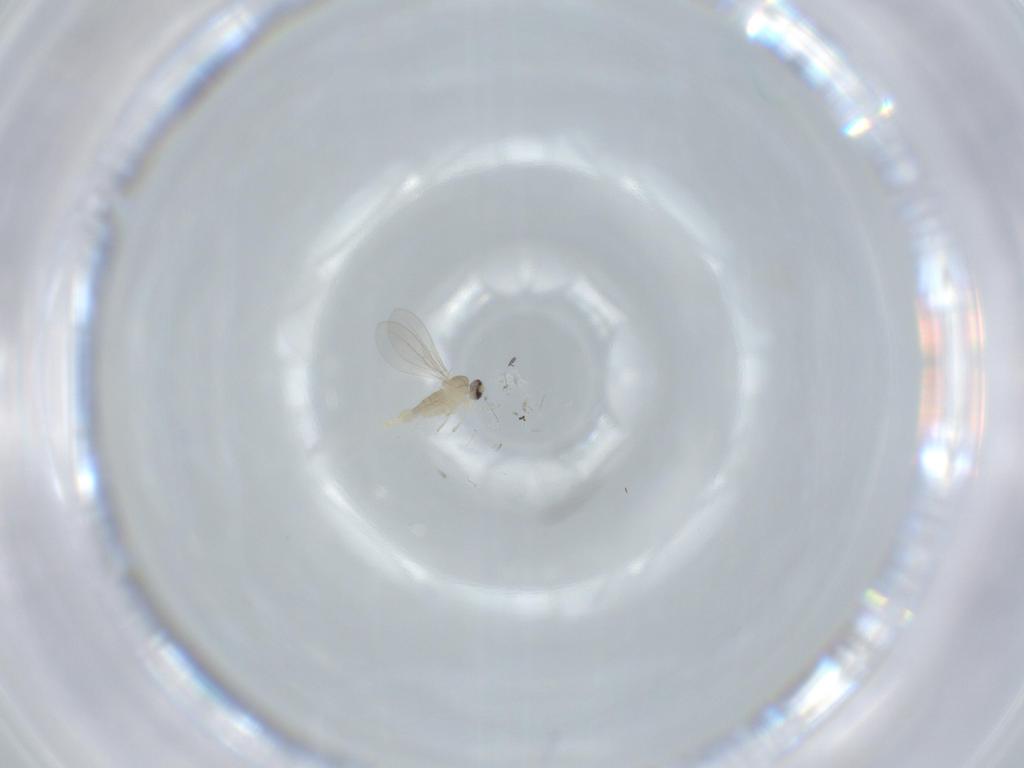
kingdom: Animalia
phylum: Arthropoda
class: Insecta
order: Diptera
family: Cecidomyiidae
